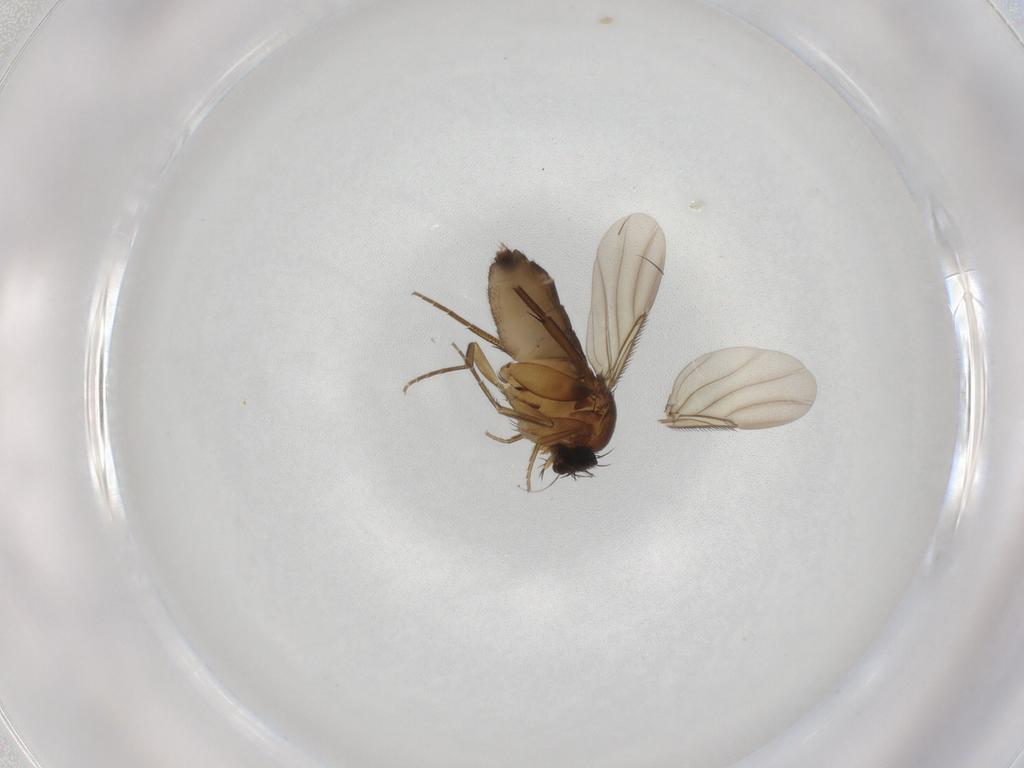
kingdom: Animalia
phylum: Arthropoda
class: Insecta
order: Diptera
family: Phoridae
